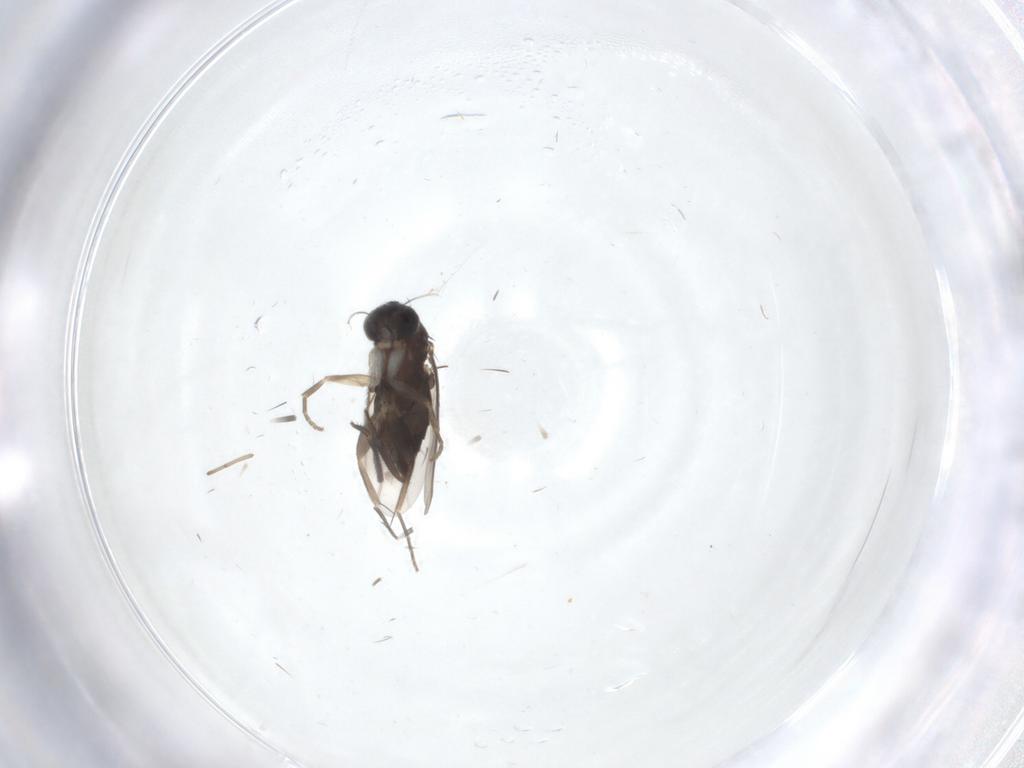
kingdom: Animalia
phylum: Arthropoda
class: Insecta
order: Diptera
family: Phoridae
